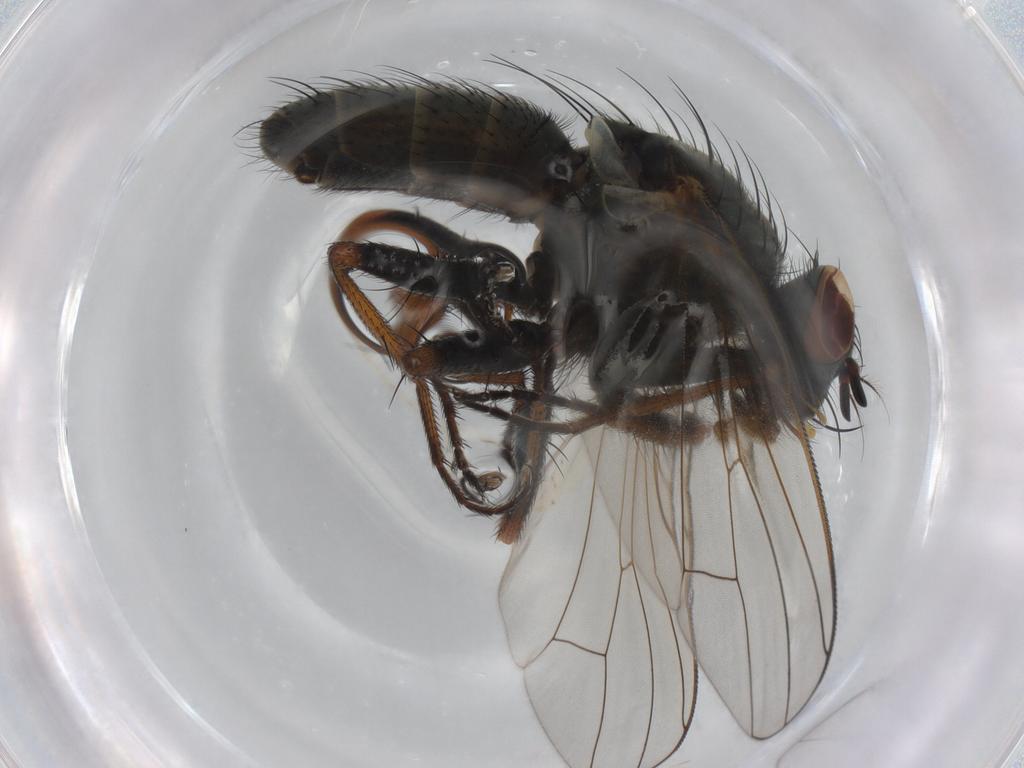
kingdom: Animalia
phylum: Arthropoda
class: Insecta
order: Diptera
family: Muscidae
